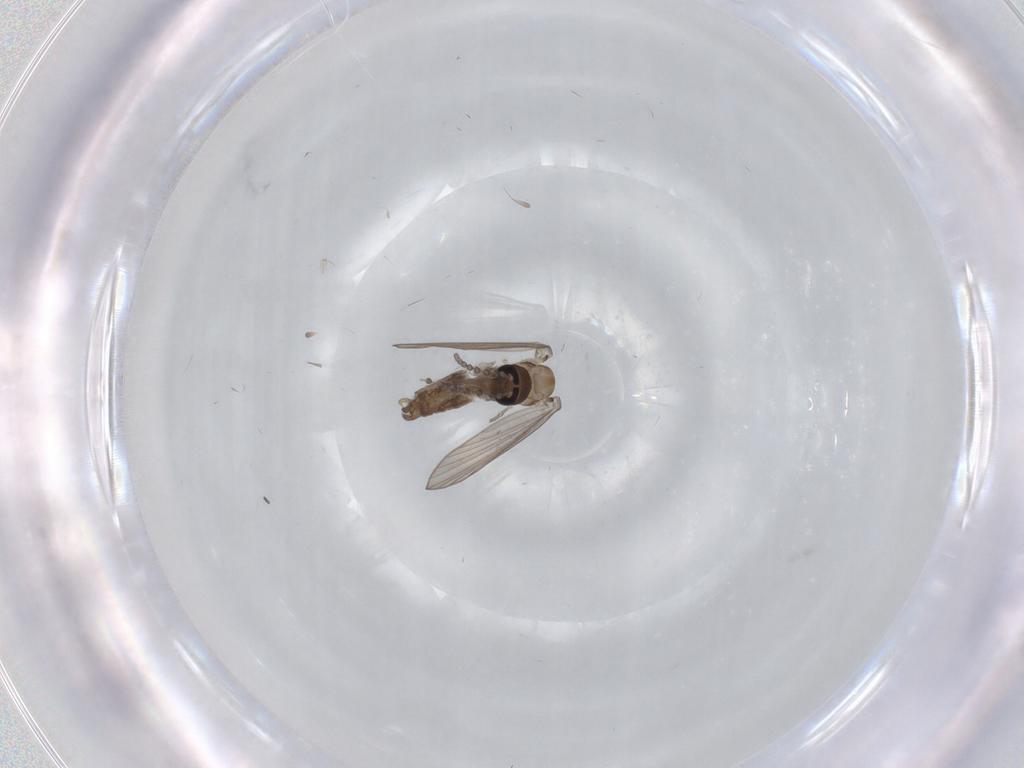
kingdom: Animalia
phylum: Arthropoda
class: Insecta
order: Diptera
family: Psychodidae
